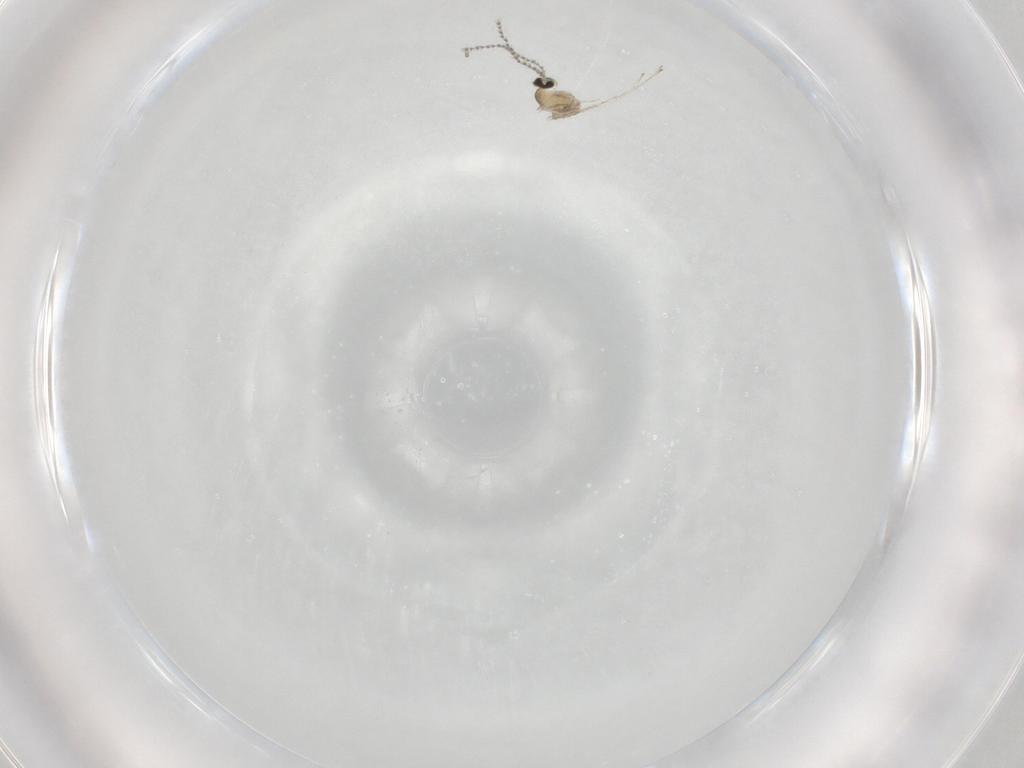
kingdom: Animalia
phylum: Arthropoda
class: Insecta
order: Diptera
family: Cecidomyiidae
